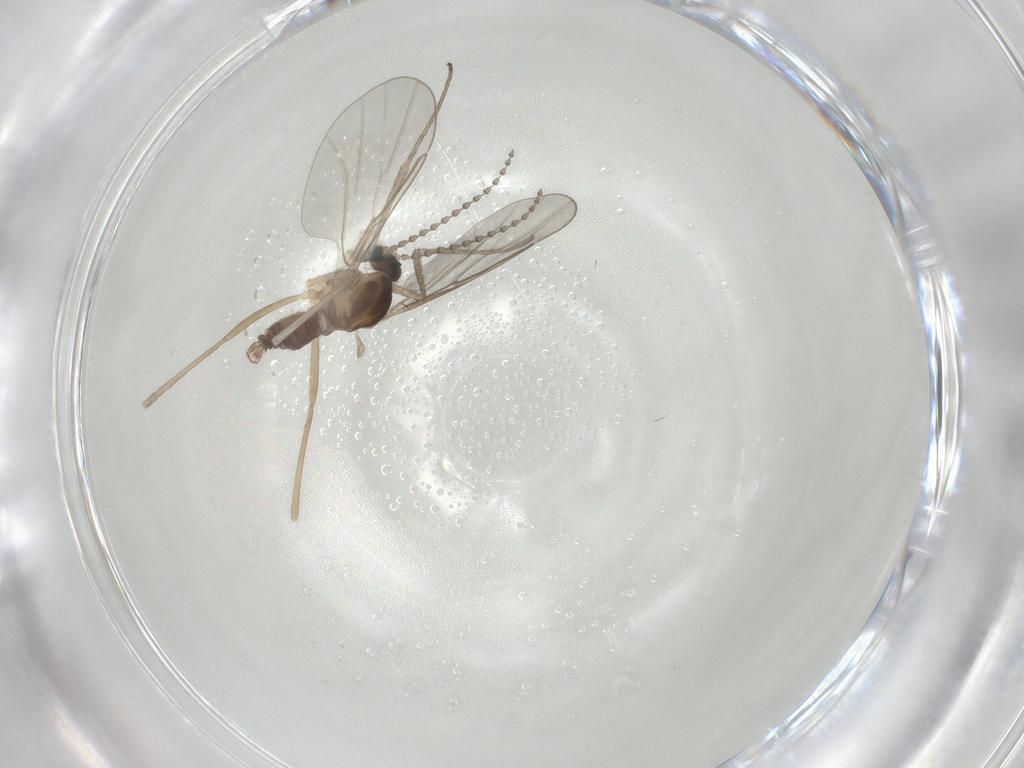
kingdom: Animalia
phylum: Arthropoda
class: Insecta
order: Diptera
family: Cecidomyiidae
